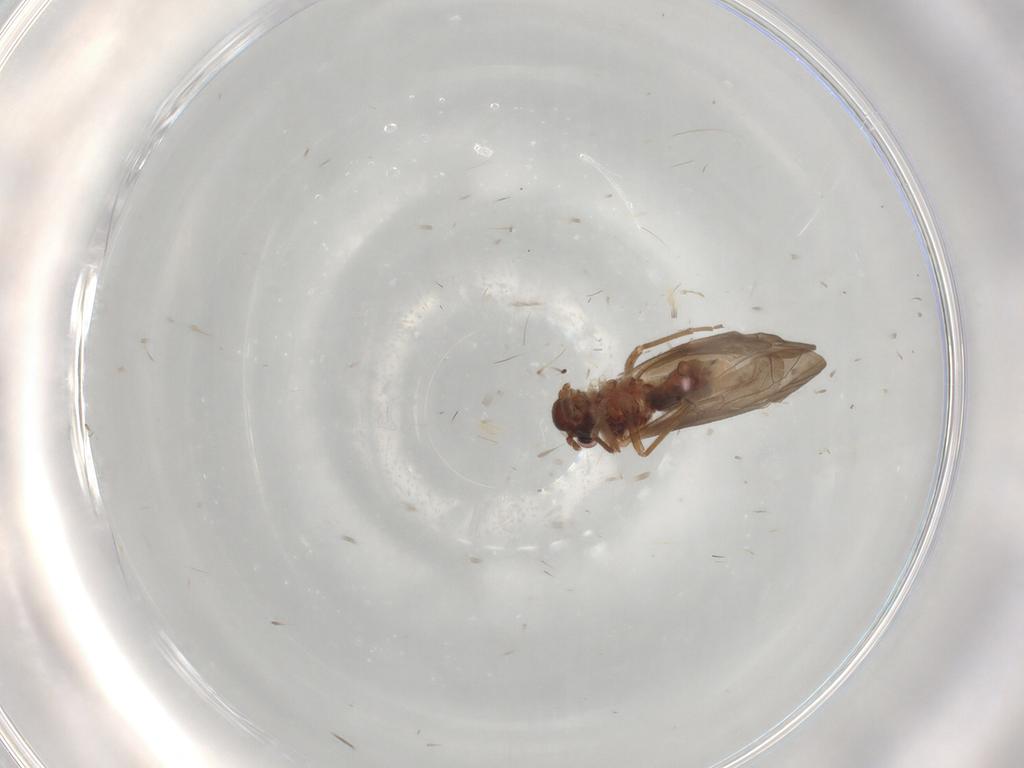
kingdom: Animalia
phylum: Arthropoda
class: Insecta
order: Psocodea
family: Caeciliusidae
